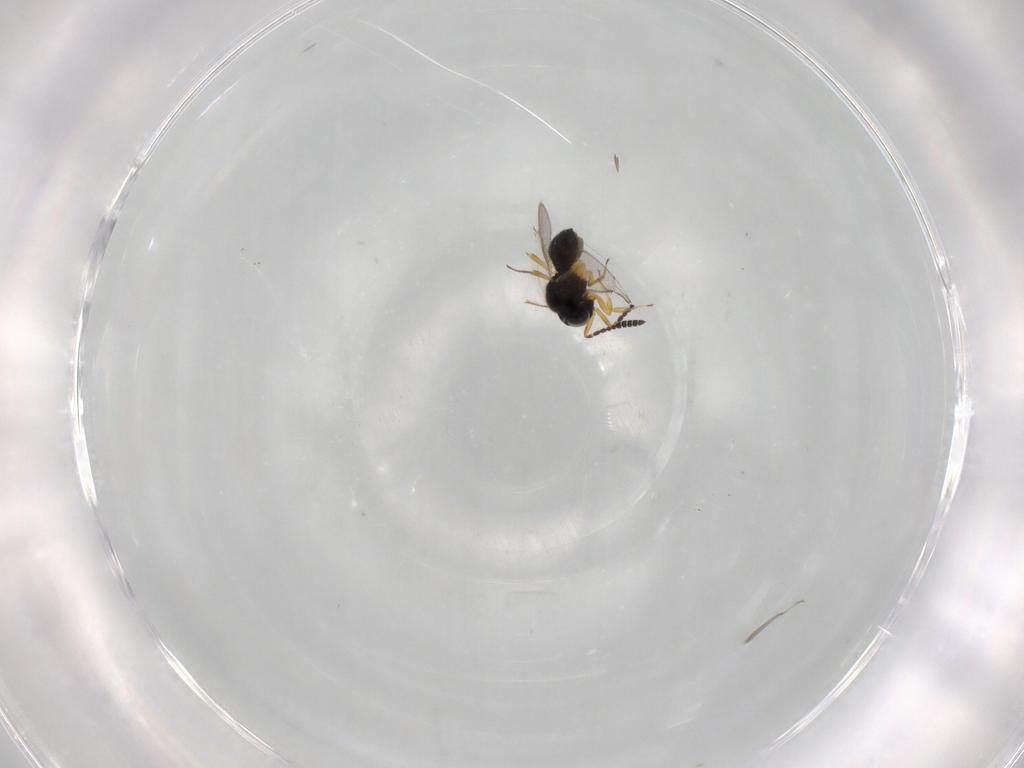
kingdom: Animalia
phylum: Arthropoda
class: Insecta
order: Hymenoptera
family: Scelionidae
